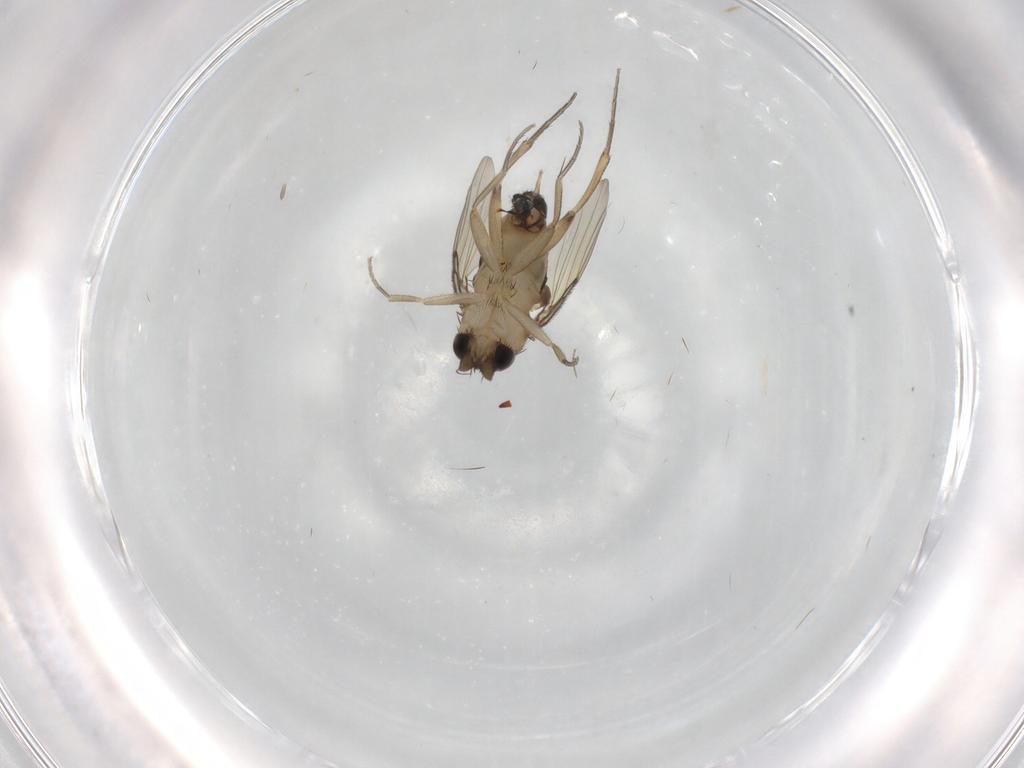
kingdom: Animalia
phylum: Arthropoda
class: Insecta
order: Diptera
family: Phoridae
